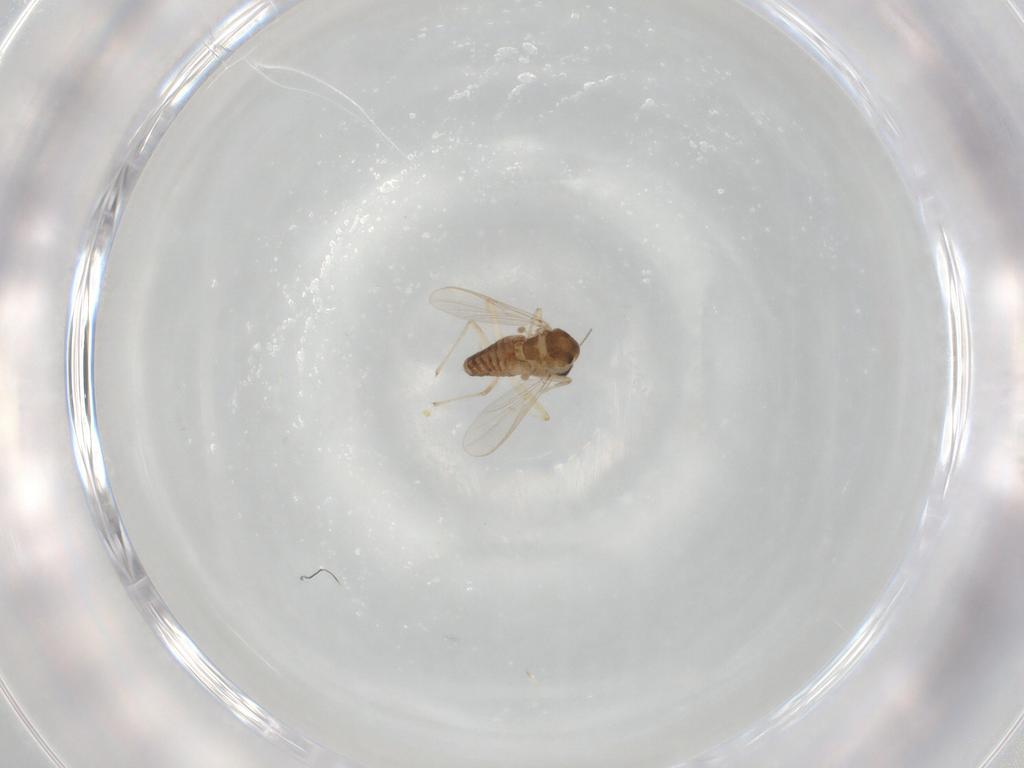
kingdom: Animalia
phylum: Arthropoda
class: Insecta
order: Diptera
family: Chironomidae
